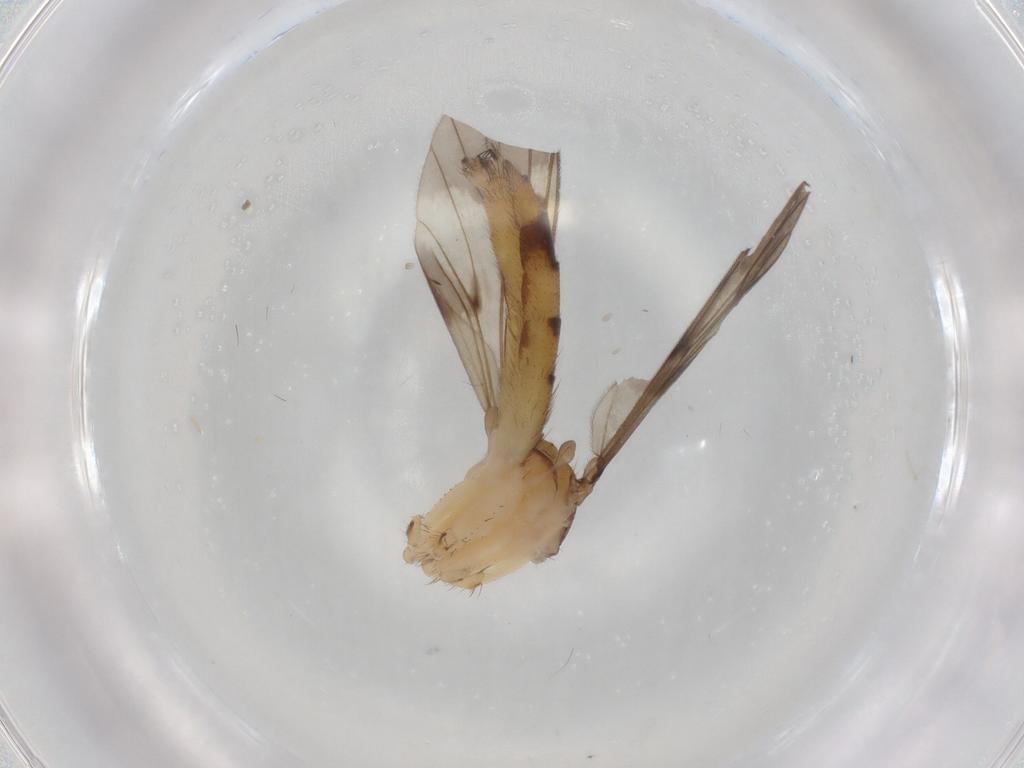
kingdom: Animalia
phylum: Arthropoda
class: Insecta
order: Diptera
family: Mycetophilidae
